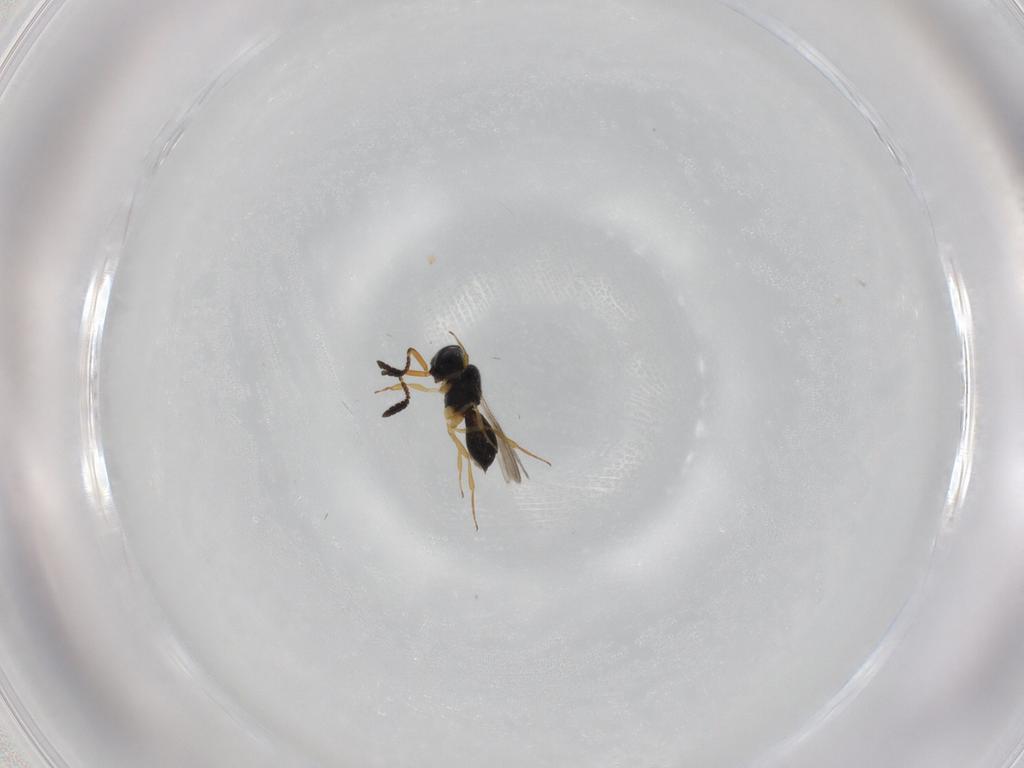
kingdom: Animalia
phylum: Arthropoda
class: Insecta
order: Hymenoptera
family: Scelionidae
